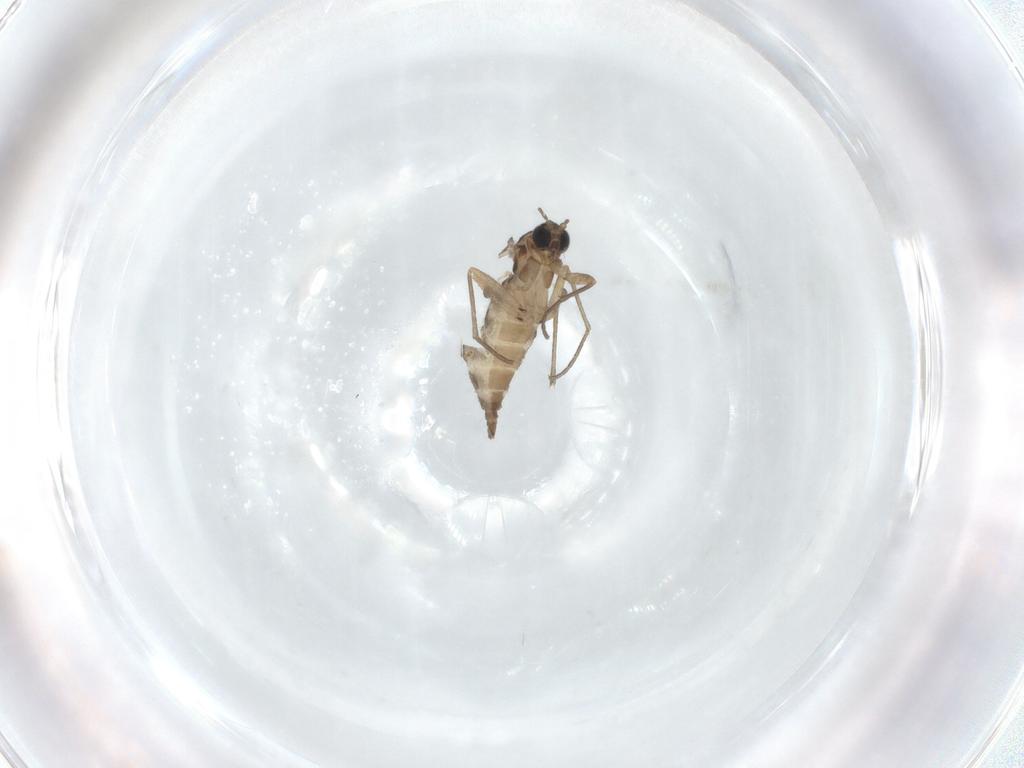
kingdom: Animalia
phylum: Arthropoda
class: Insecta
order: Diptera
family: Sciaridae
